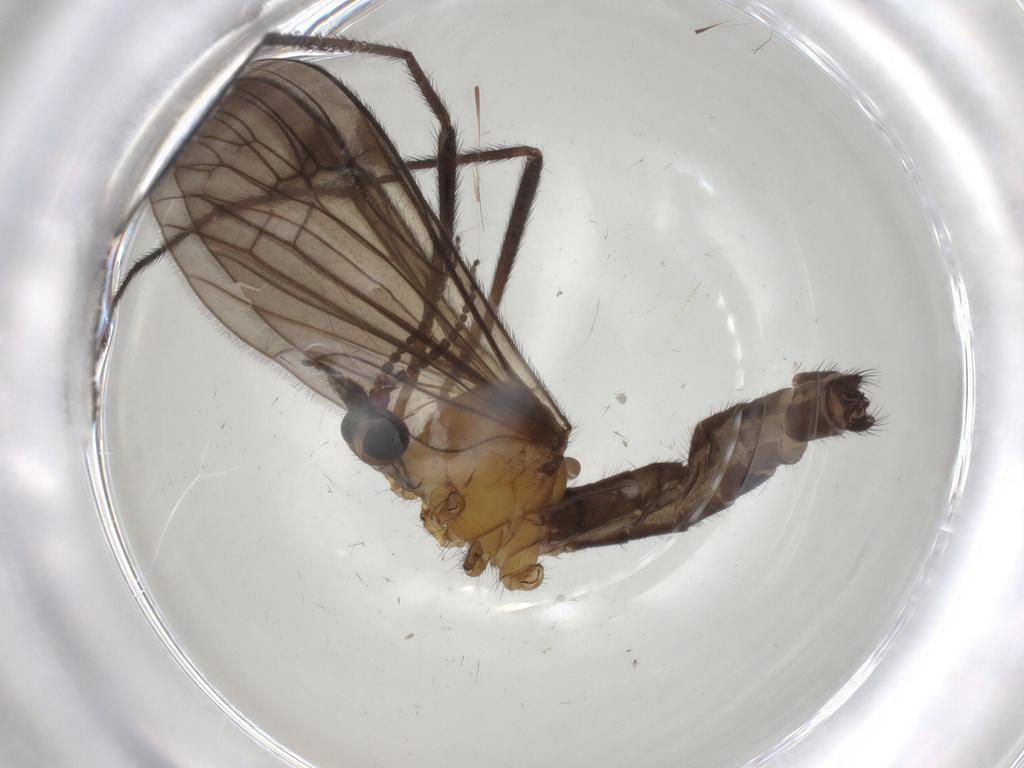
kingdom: Animalia
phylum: Arthropoda
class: Insecta
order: Diptera
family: Limoniidae
